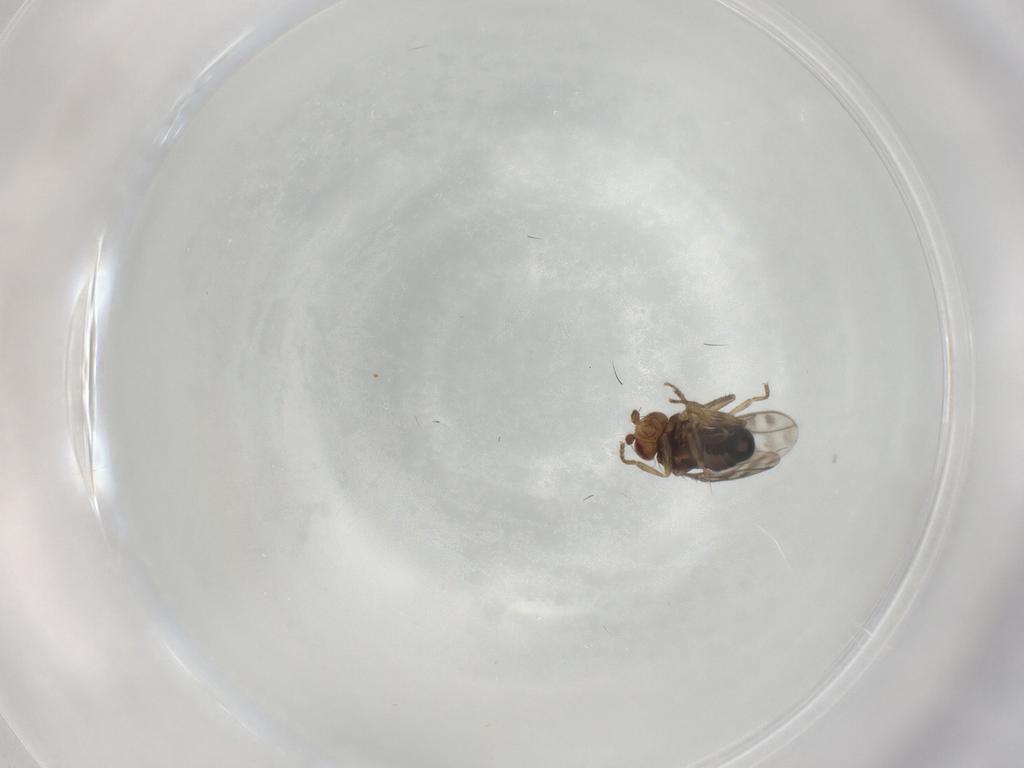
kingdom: Animalia
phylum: Arthropoda
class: Insecta
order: Diptera
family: Sphaeroceridae
